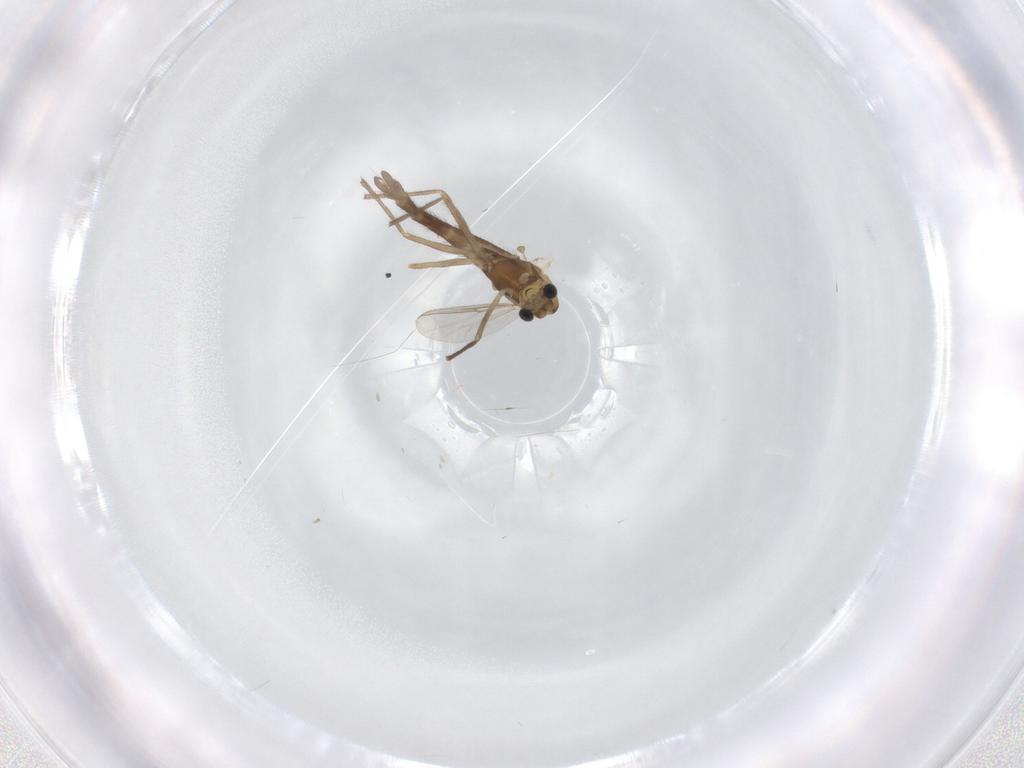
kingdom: Animalia
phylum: Arthropoda
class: Insecta
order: Diptera
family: Chironomidae
